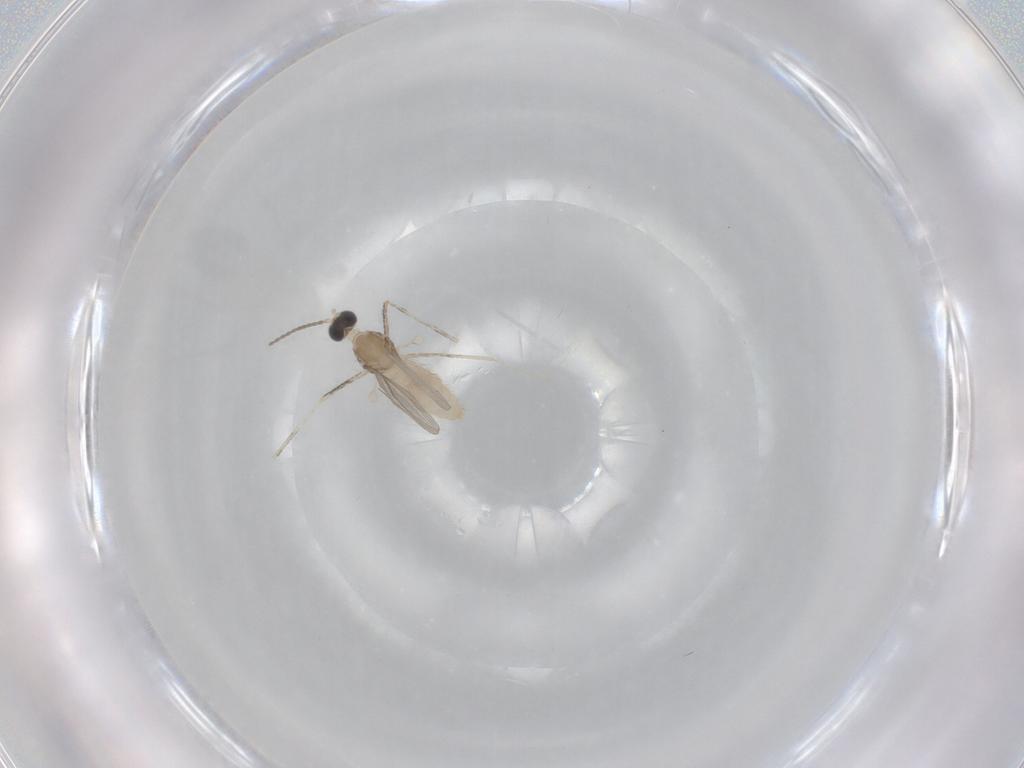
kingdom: Animalia
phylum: Arthropoda
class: Insecta
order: Diptera
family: Cecidomyiidae
